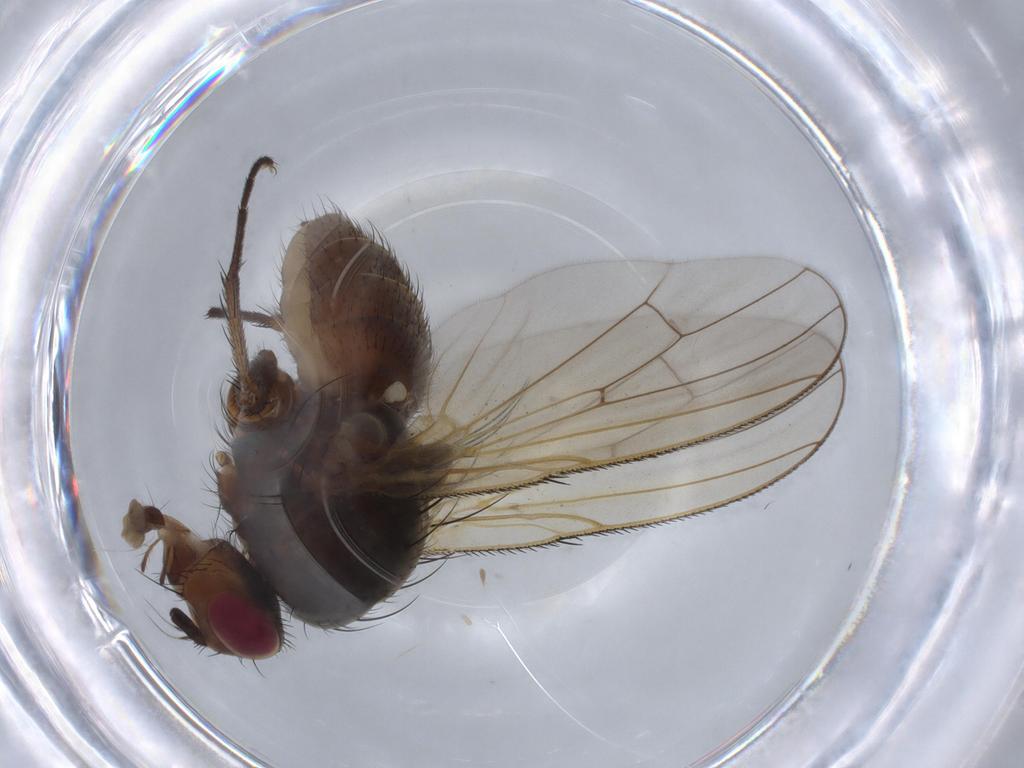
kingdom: Animalia
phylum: Arthropoda
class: Insecta
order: Diptera
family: Anthomyiidae
